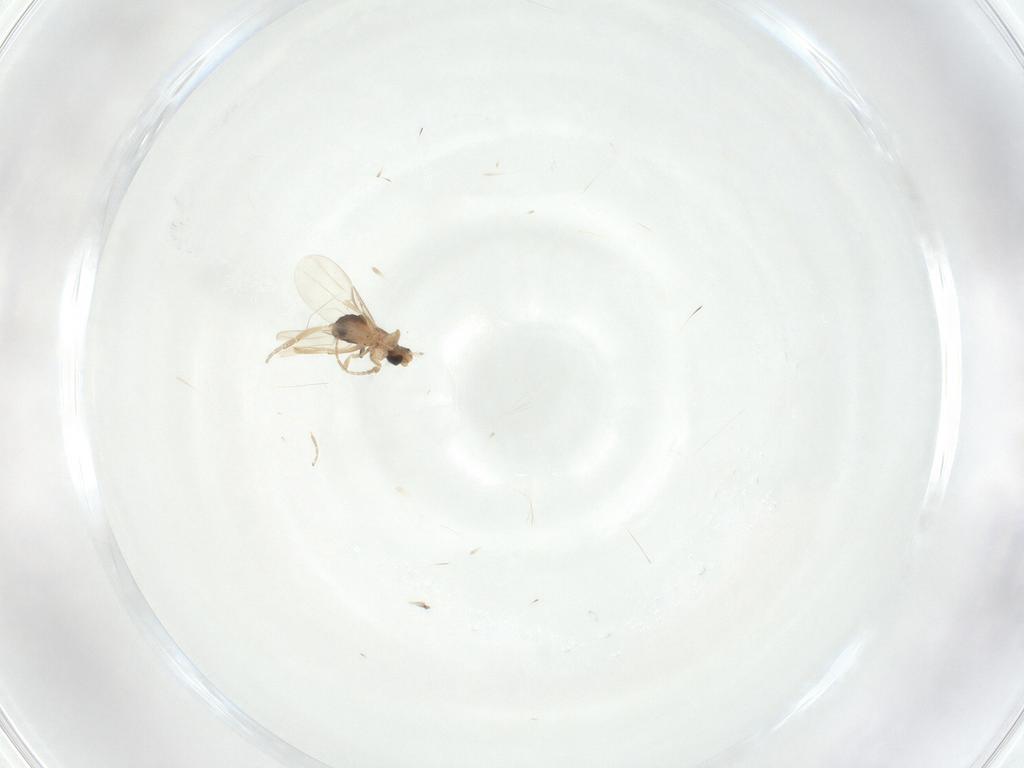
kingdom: Animalia
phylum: Arthropoda
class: Insecta
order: Diptera
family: Phoridae
